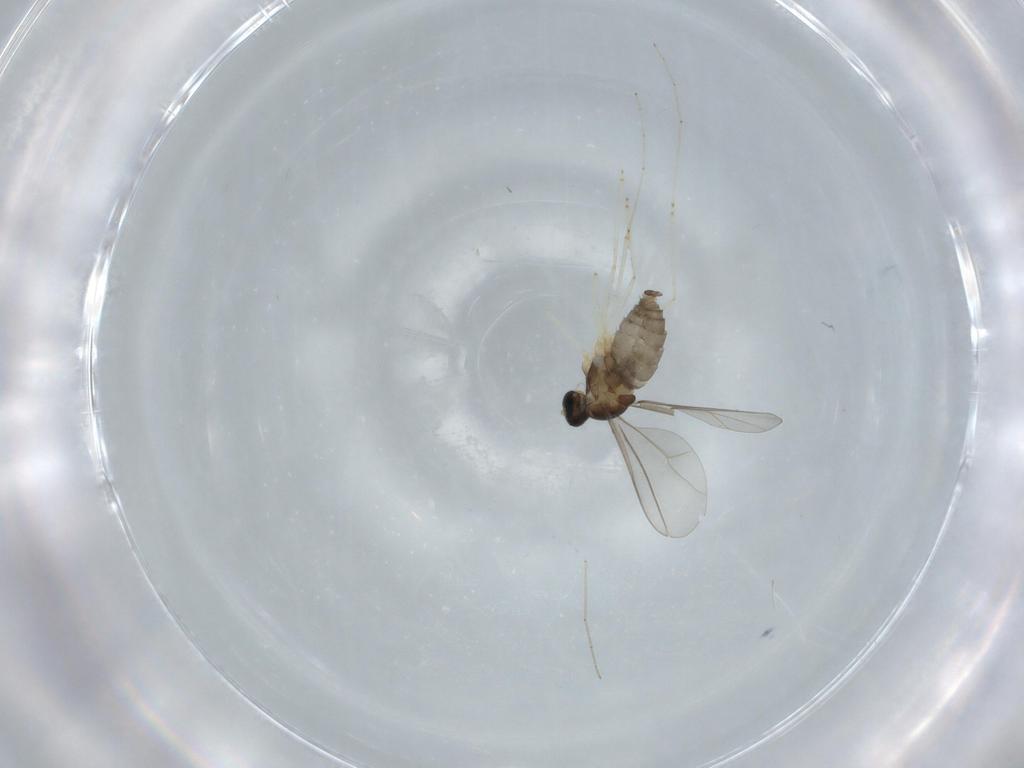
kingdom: Animalia
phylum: Arthropoda
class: Insecta
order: Diptera
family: Cecidomyiidae
